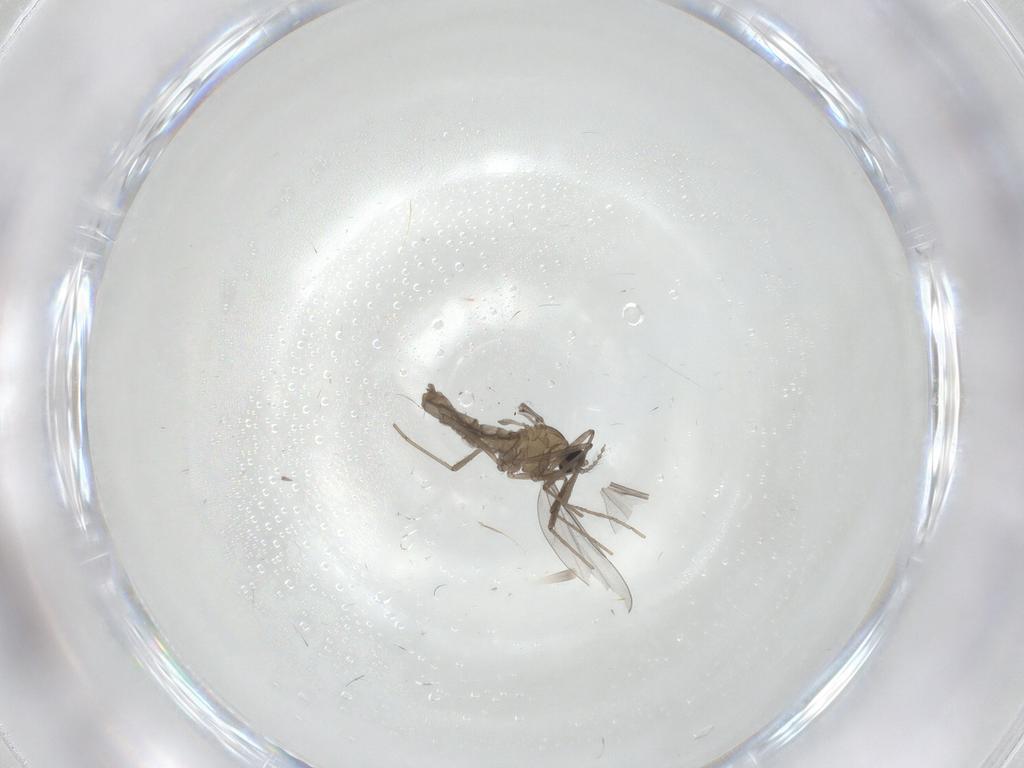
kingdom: Animalia
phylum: Arthropoda
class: Insecta
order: Diptera
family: Cecidomyiidae
